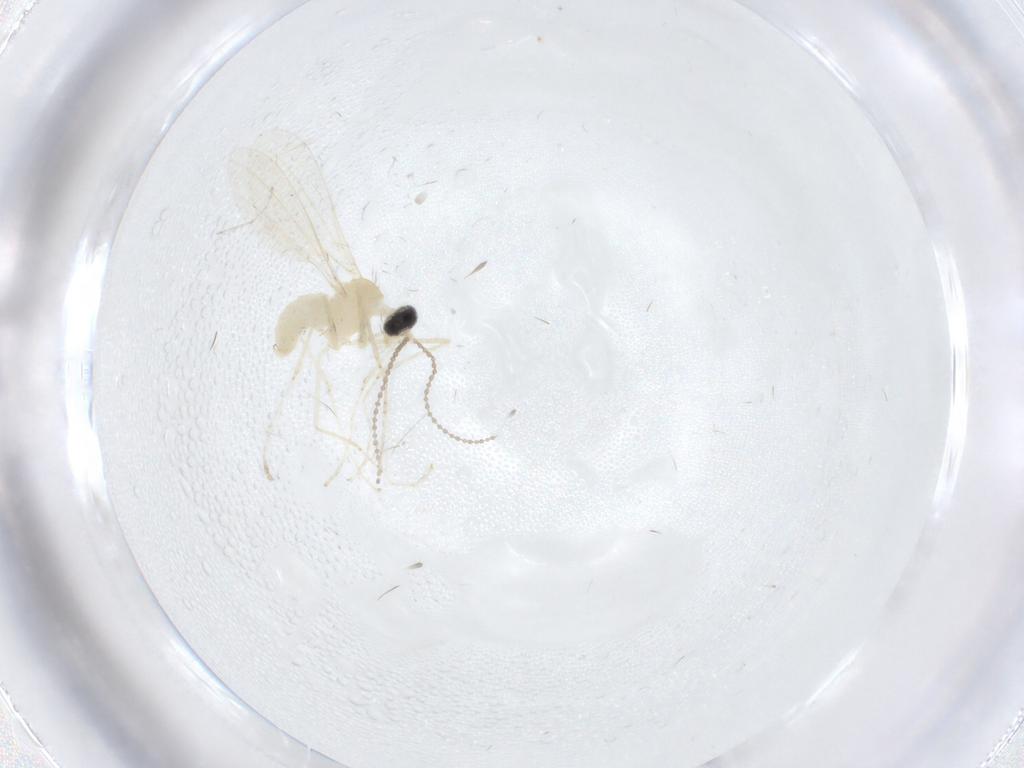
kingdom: Animalia
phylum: Arthropoda
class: Insecta
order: Diptera
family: Cecidomyiidae
